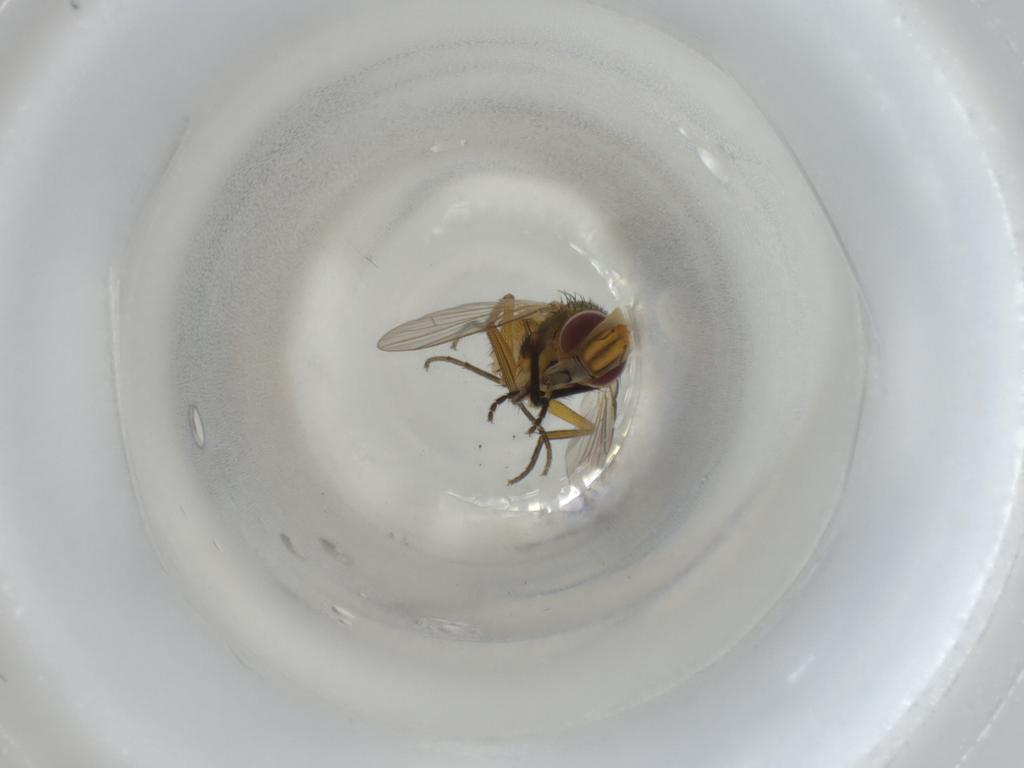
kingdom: Animalia
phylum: Arthropoda
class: Insecta
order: Diptera
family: Muscidae
